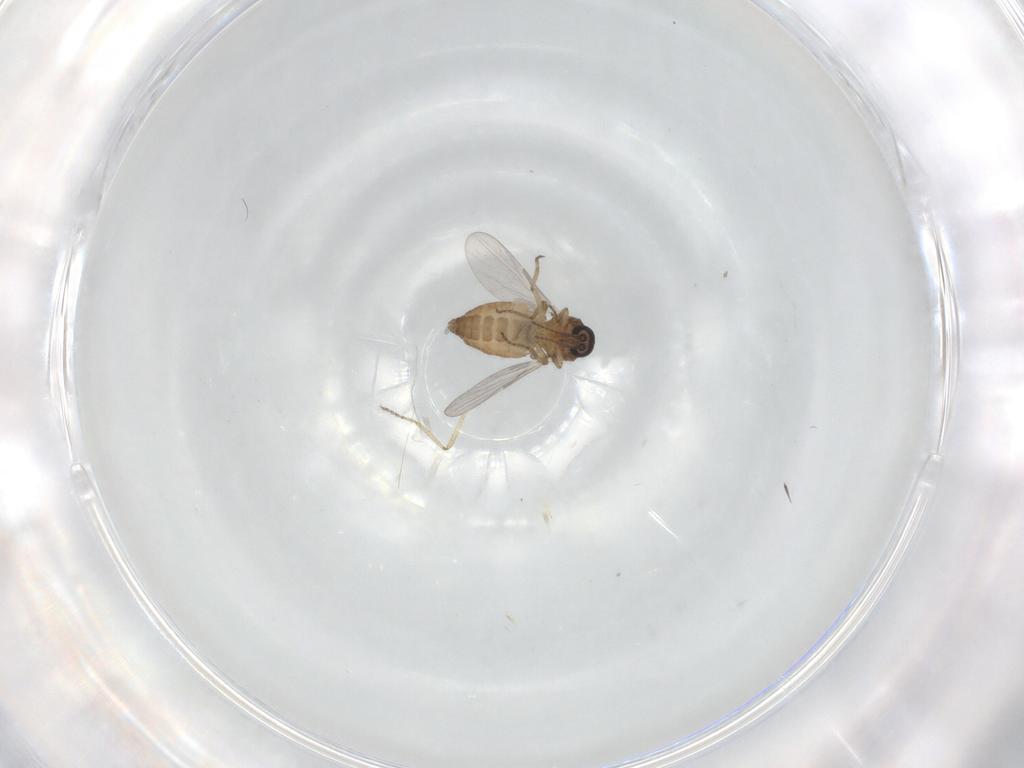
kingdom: Animalia
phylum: Arthropoda
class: Insecta
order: Diptera
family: Ceratopogonidae
